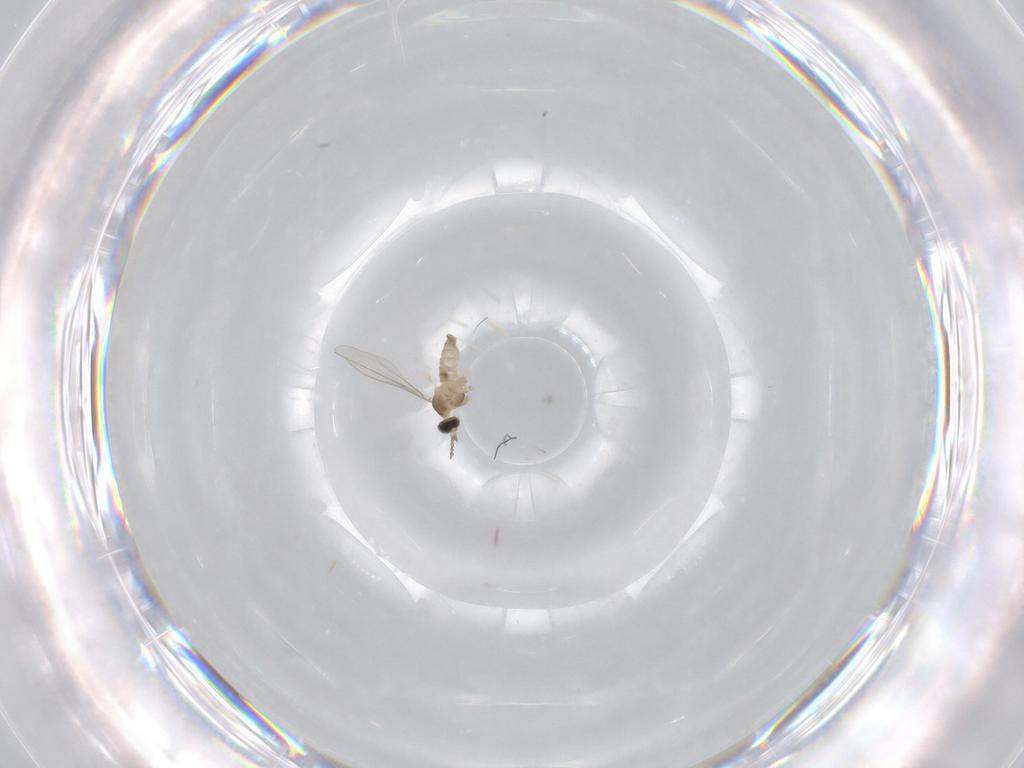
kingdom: Animalia
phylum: Arthropoda
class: Insecta
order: Diptera
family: Cecidomyiidae
